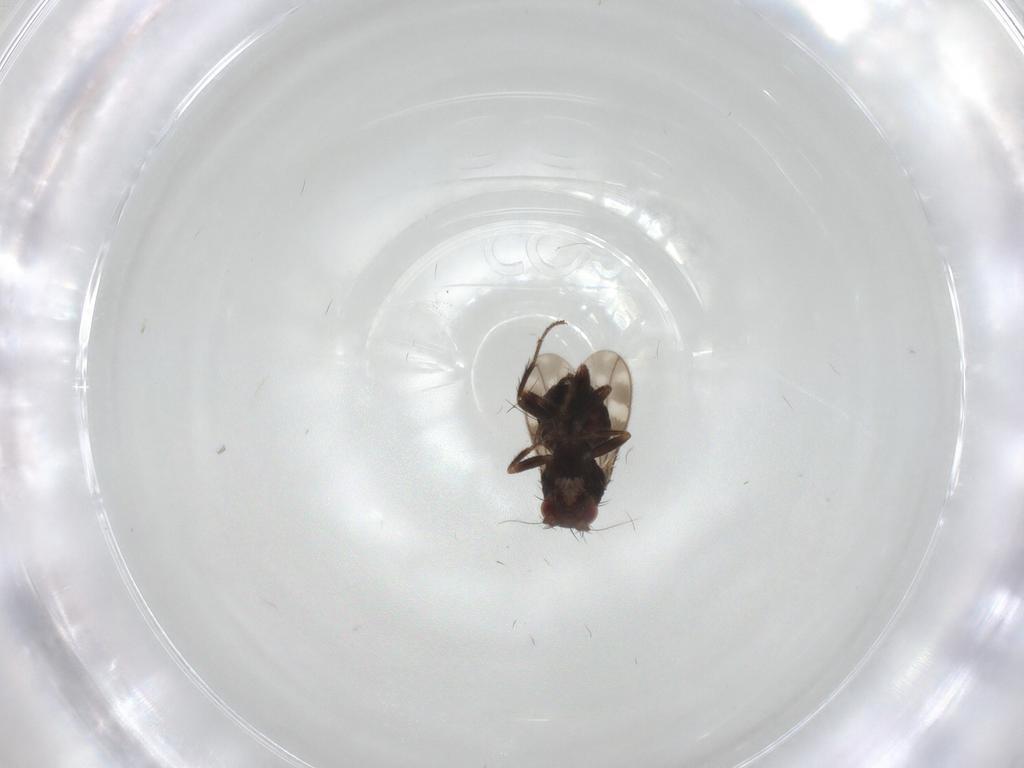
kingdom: Animalia
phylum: Arthropoda
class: Insecta
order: Diptera
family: Sphaeroceridae
